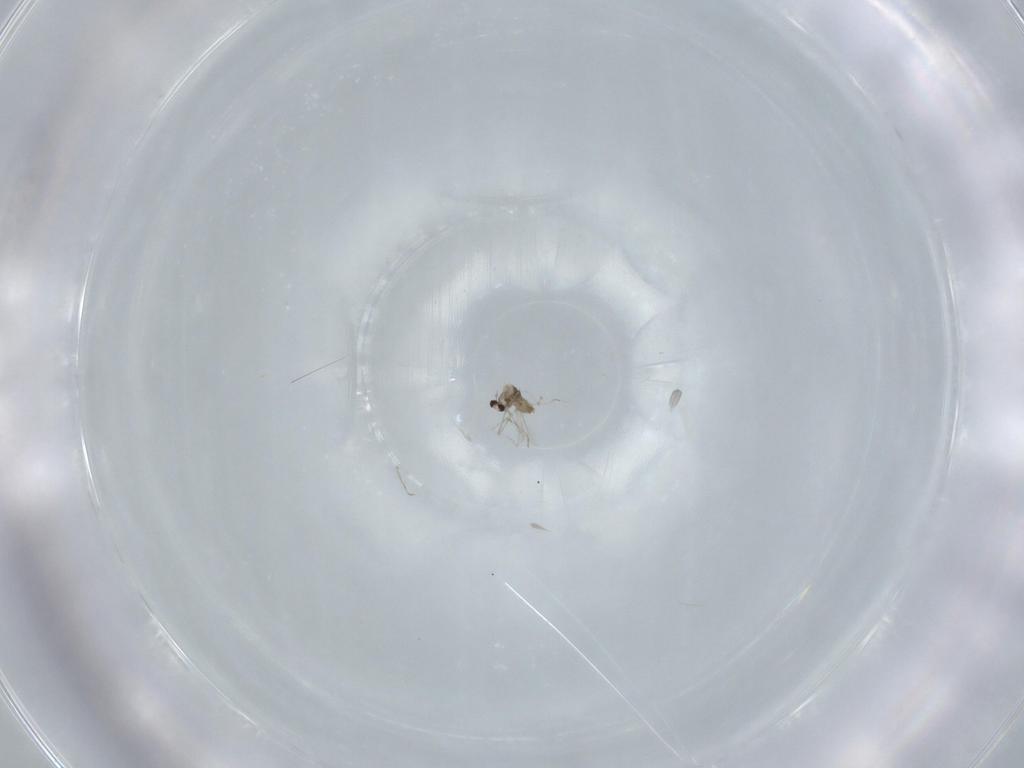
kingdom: Animalia
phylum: Arthropoda
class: Insecta
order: Diptera
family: Cecidomyiidae
